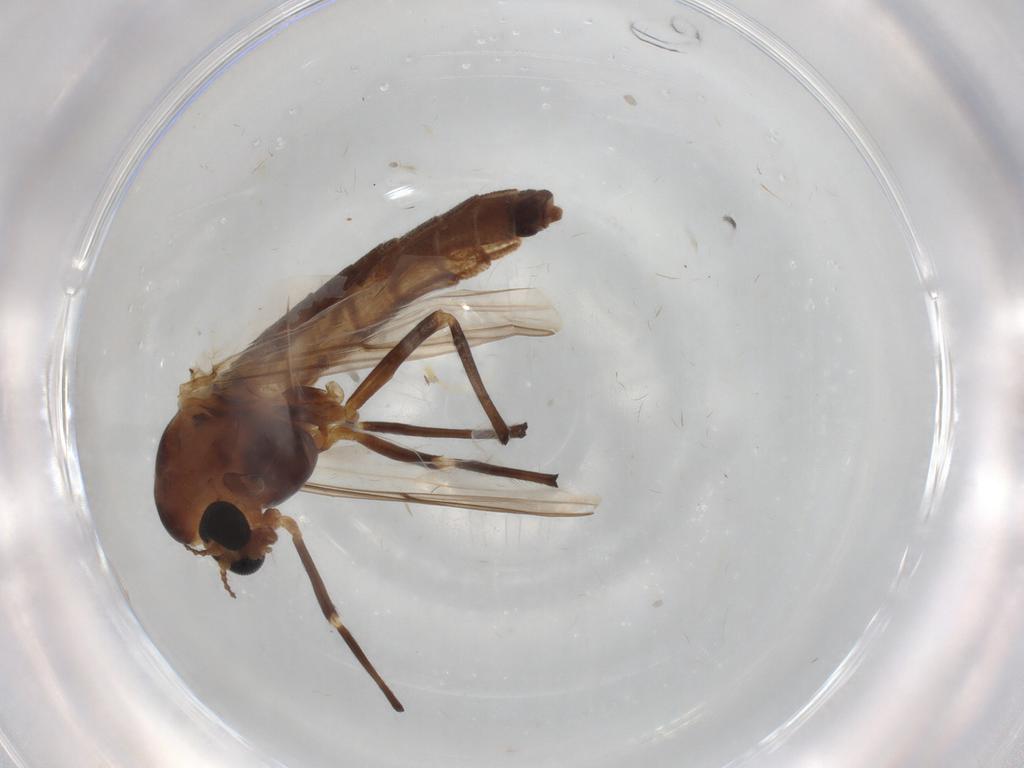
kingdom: Animalia
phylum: Arthropoda
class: Insecta
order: Diptera
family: Chironomidae
